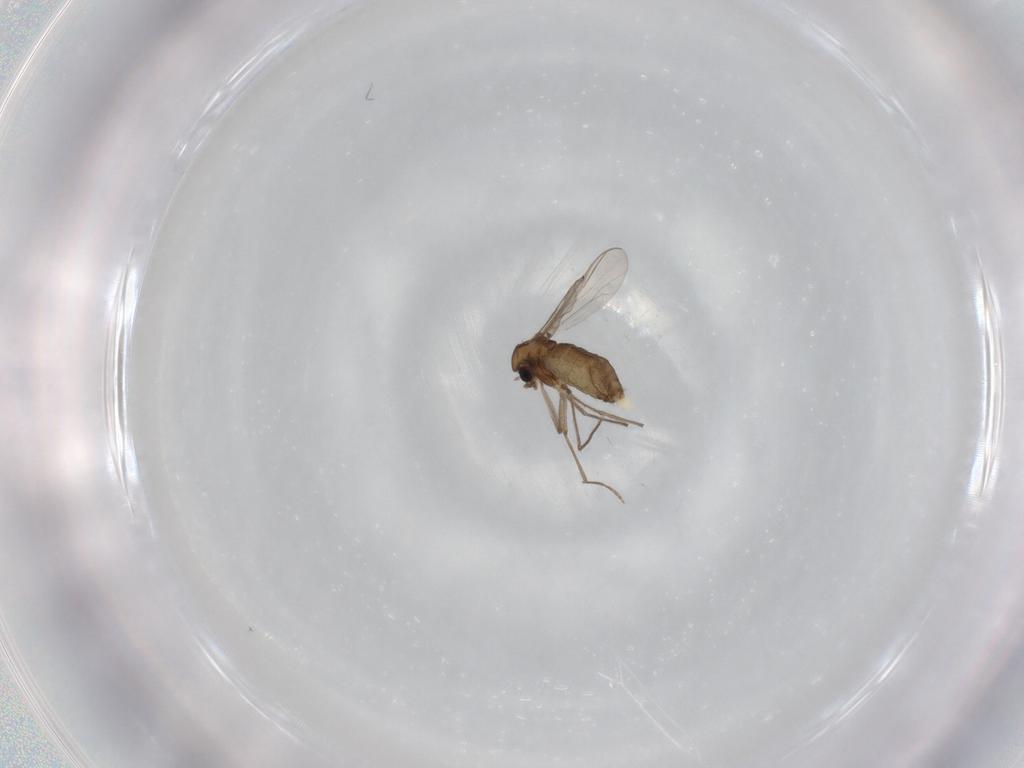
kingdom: Animalia
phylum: Arthropoda
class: Insecta
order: Diptera
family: Chironomidae
